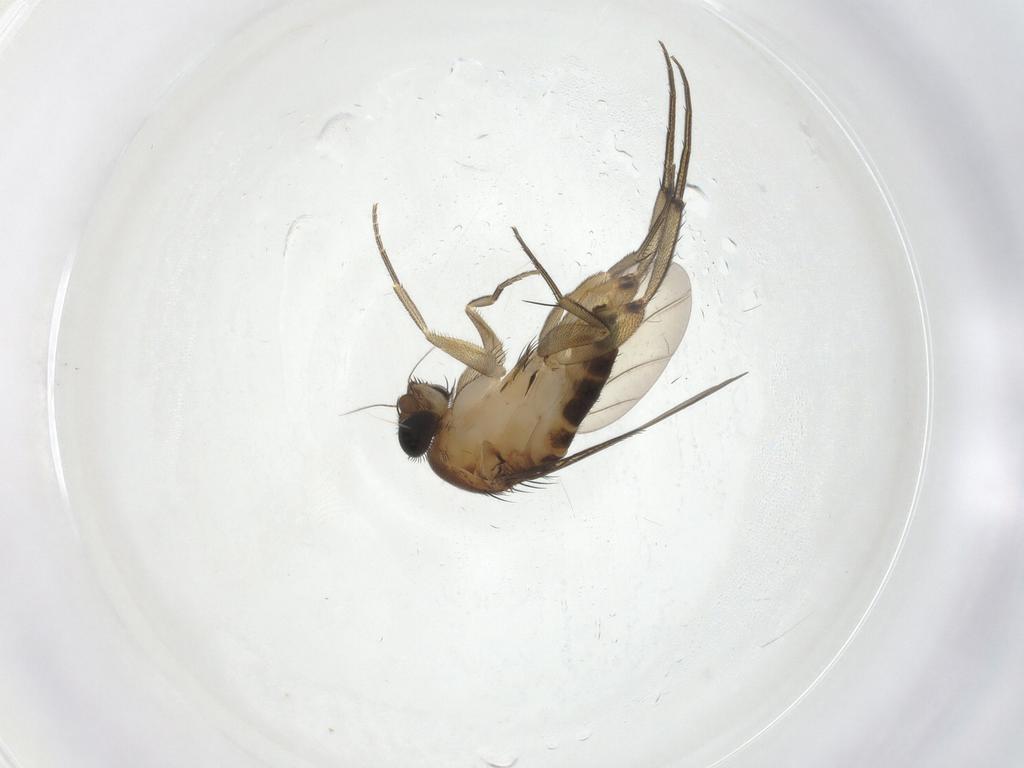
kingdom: Animalia
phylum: Arthropoda
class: Insecta
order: Diptera
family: Phoridae
